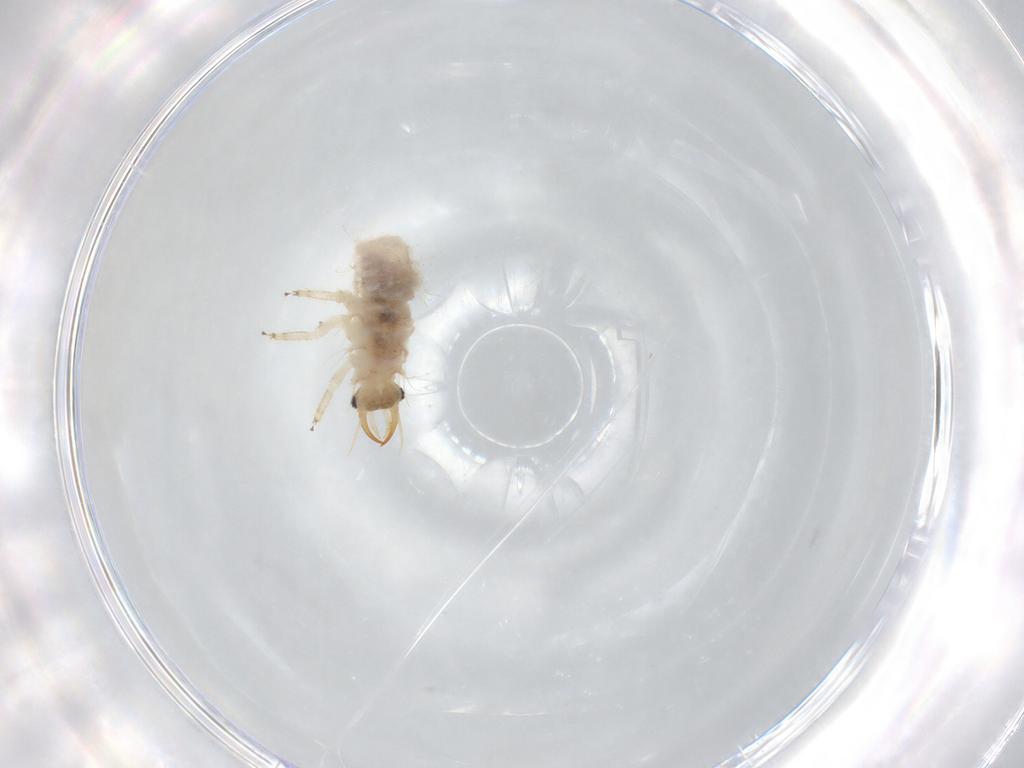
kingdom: Animalia
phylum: Arthropoda
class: Insecta
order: Neuroptera
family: Chrysopidae
